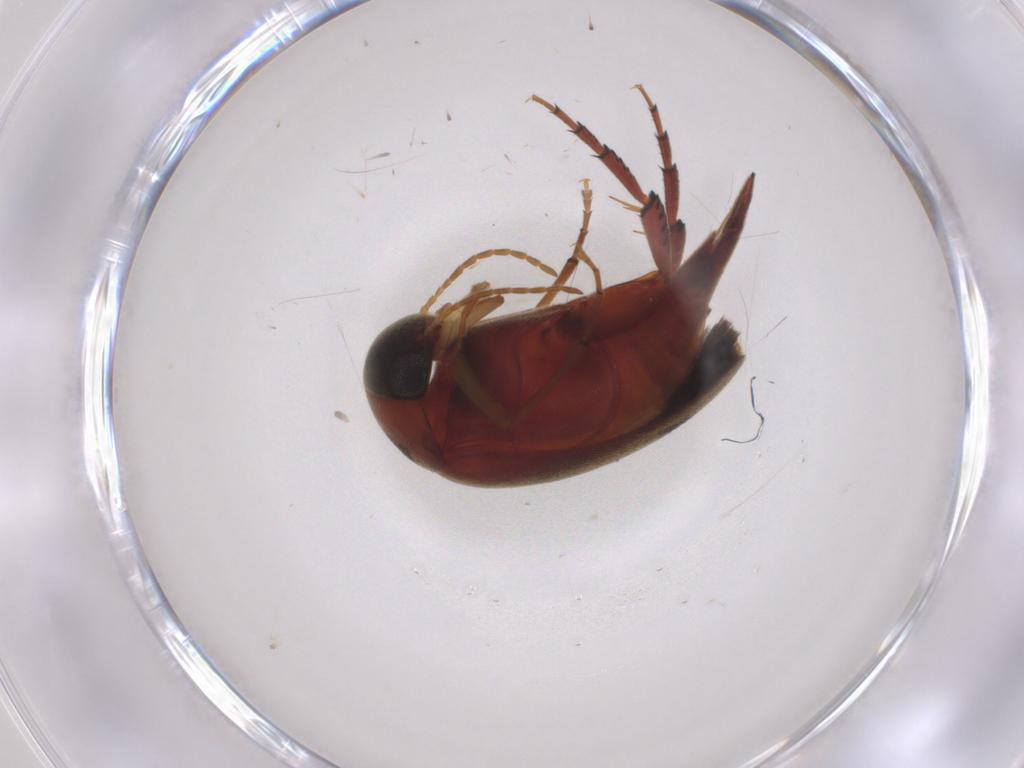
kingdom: Animalia
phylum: Arthropoda
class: Insecta
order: Coleoptera
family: Mordellidae
